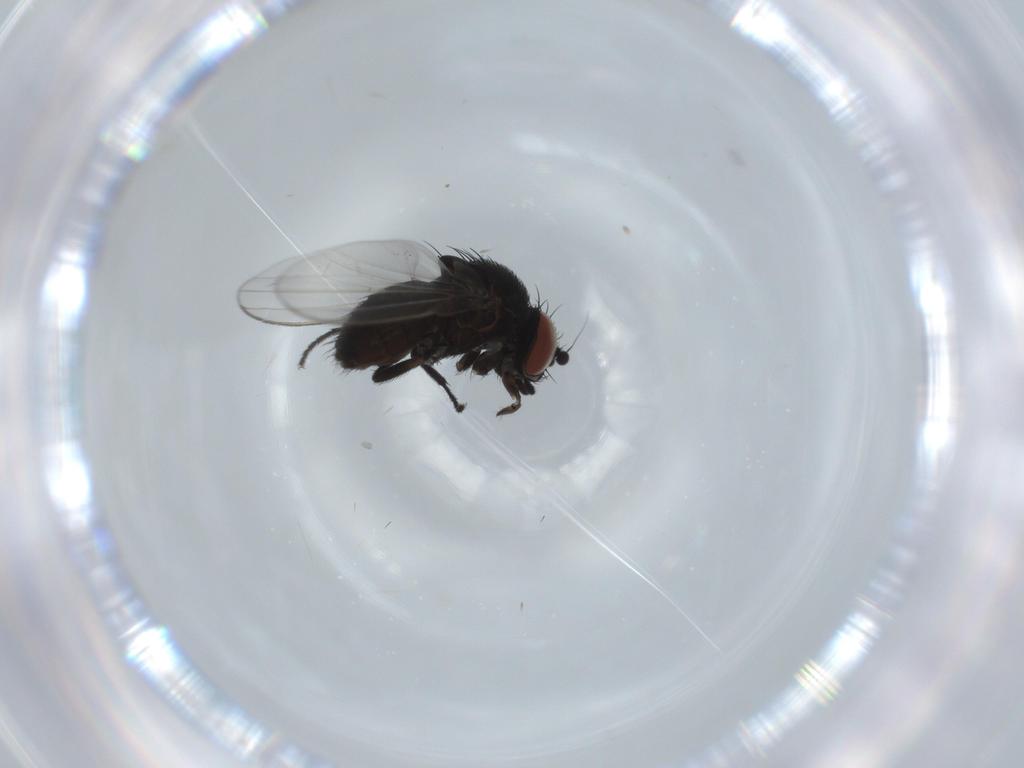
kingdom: Animalia
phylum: Arthropoda
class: Insecta
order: Diptera
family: Milichiidae
